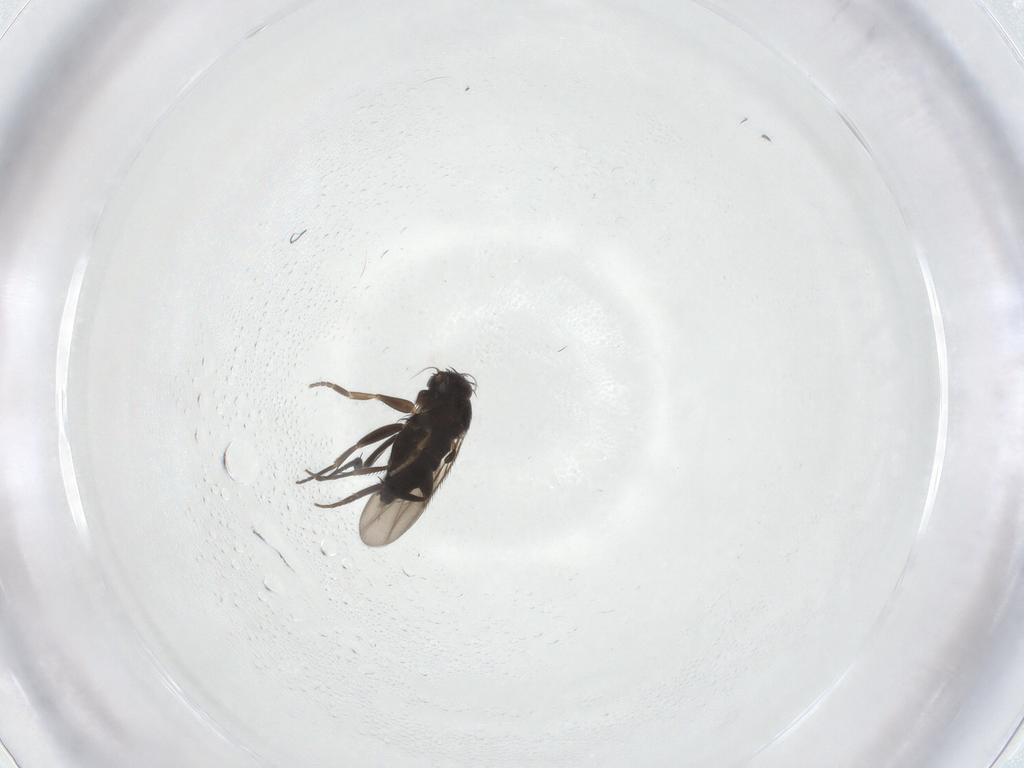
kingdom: Animalia
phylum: Arthropoda
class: Insecta
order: Diptera
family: Phoridae
